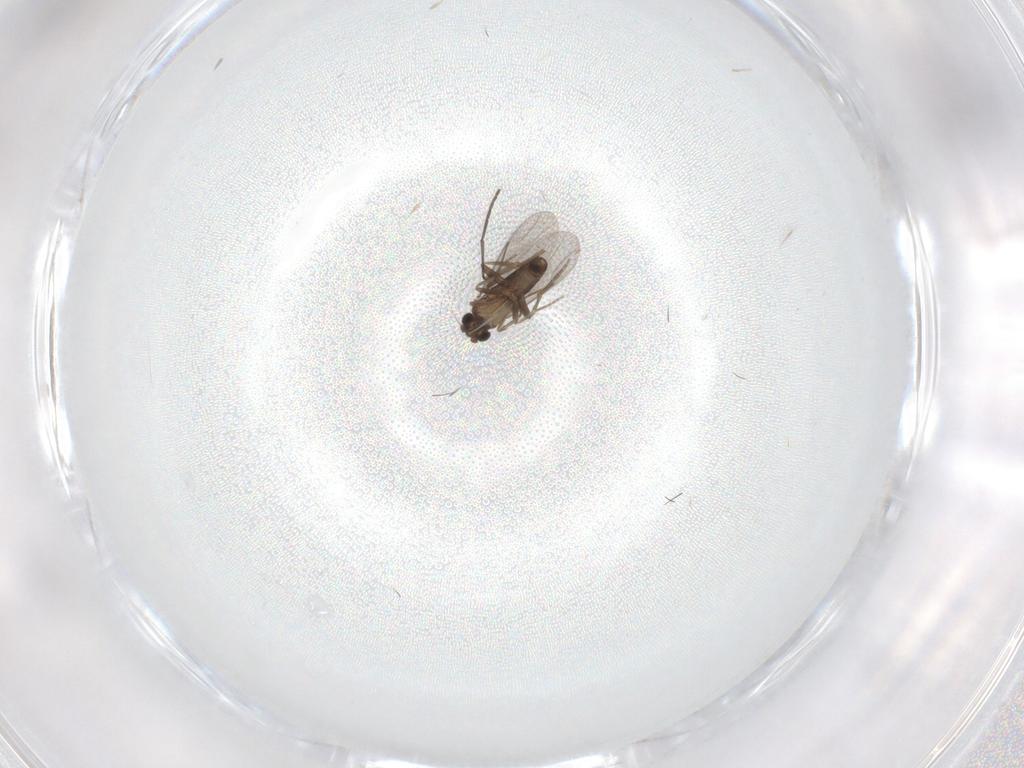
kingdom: Animalia
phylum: Arthropoda
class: Insecta
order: Diptera
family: Cecidomyiidae
